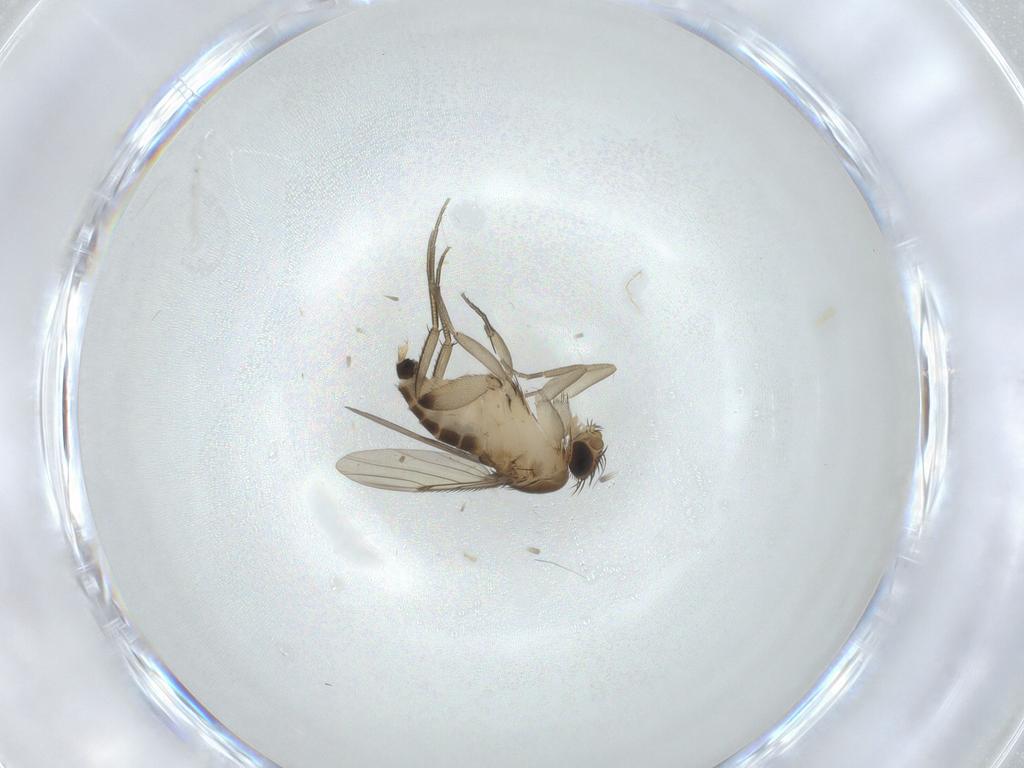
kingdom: Animalia
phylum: Arthropoda
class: Insecta
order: Diptera
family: Phoridae
